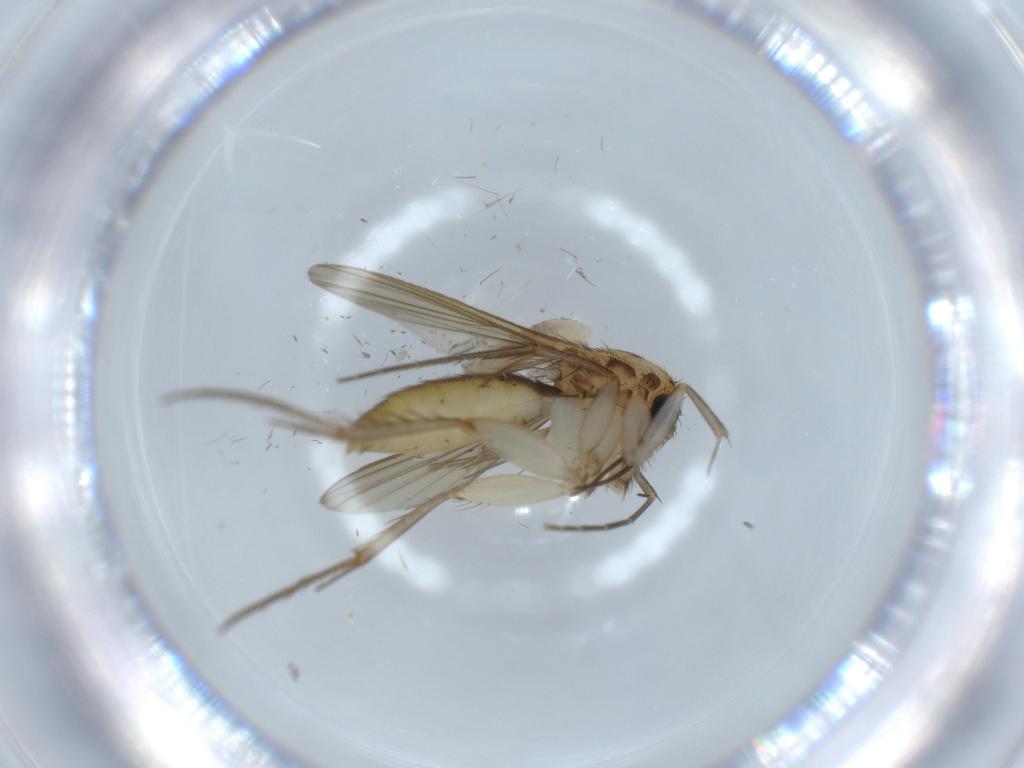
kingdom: Animalia
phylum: Arthropoda
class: Insecta
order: Diptera
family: Mycetophilidae
